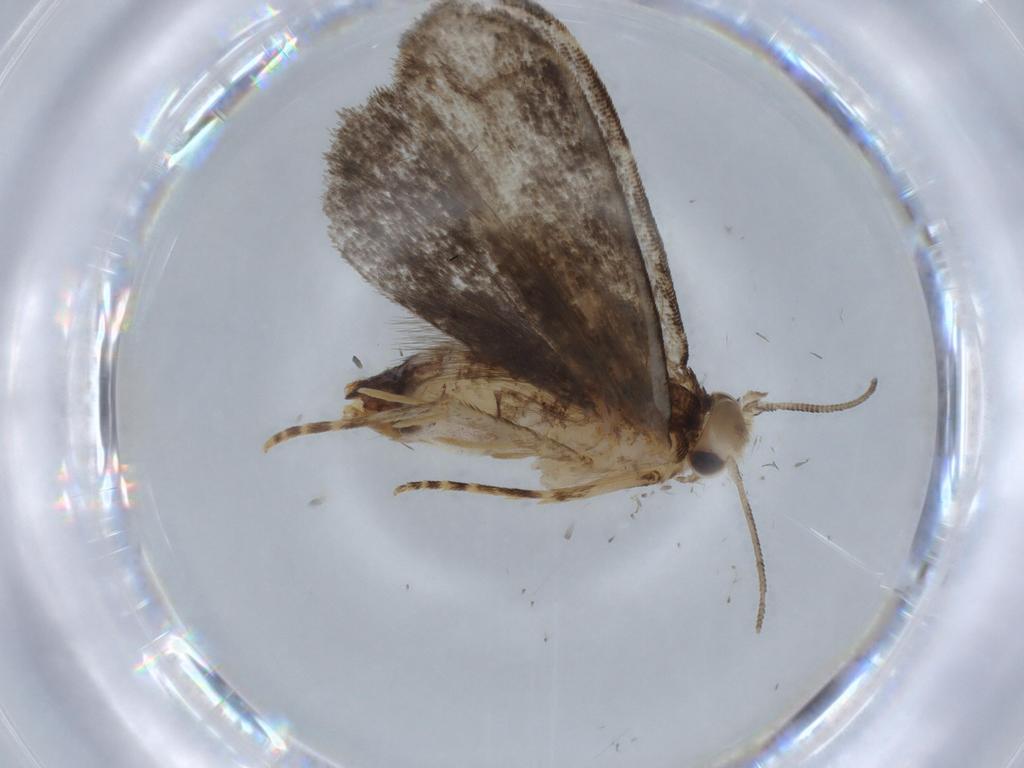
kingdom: Animalia
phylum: Arthropoda
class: Insecta
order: Lepidoptera
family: Dryadaulidae
